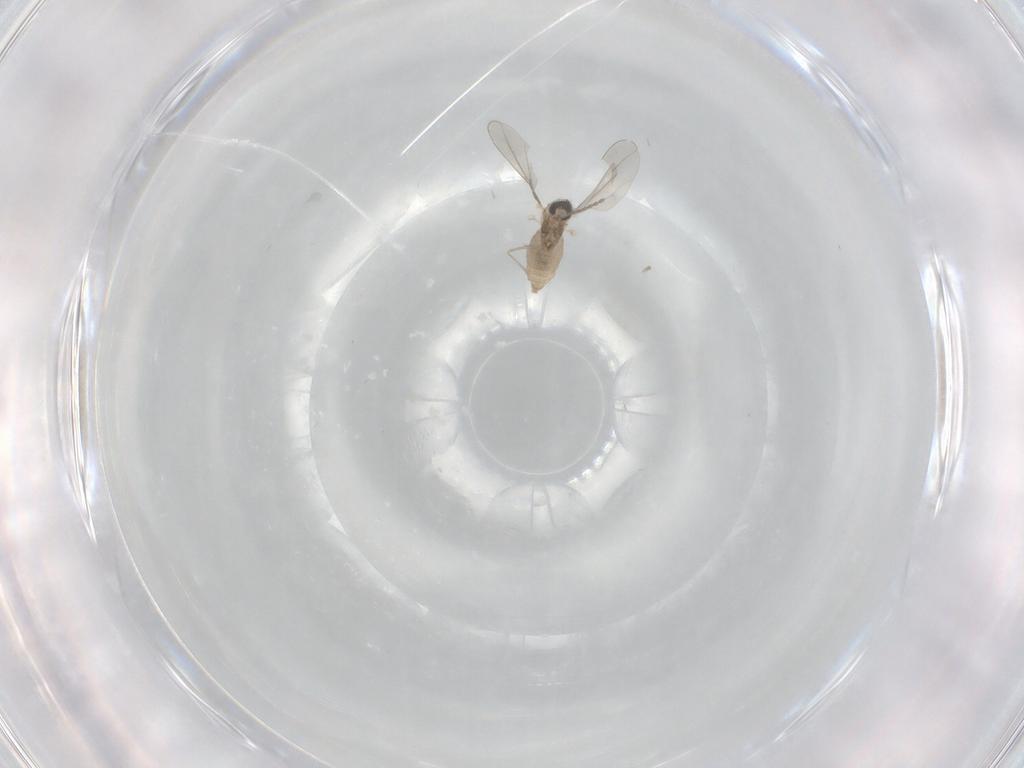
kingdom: Animalia
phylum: Arthropoda
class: Insecta
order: Diptera
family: Cecidomyiidae
